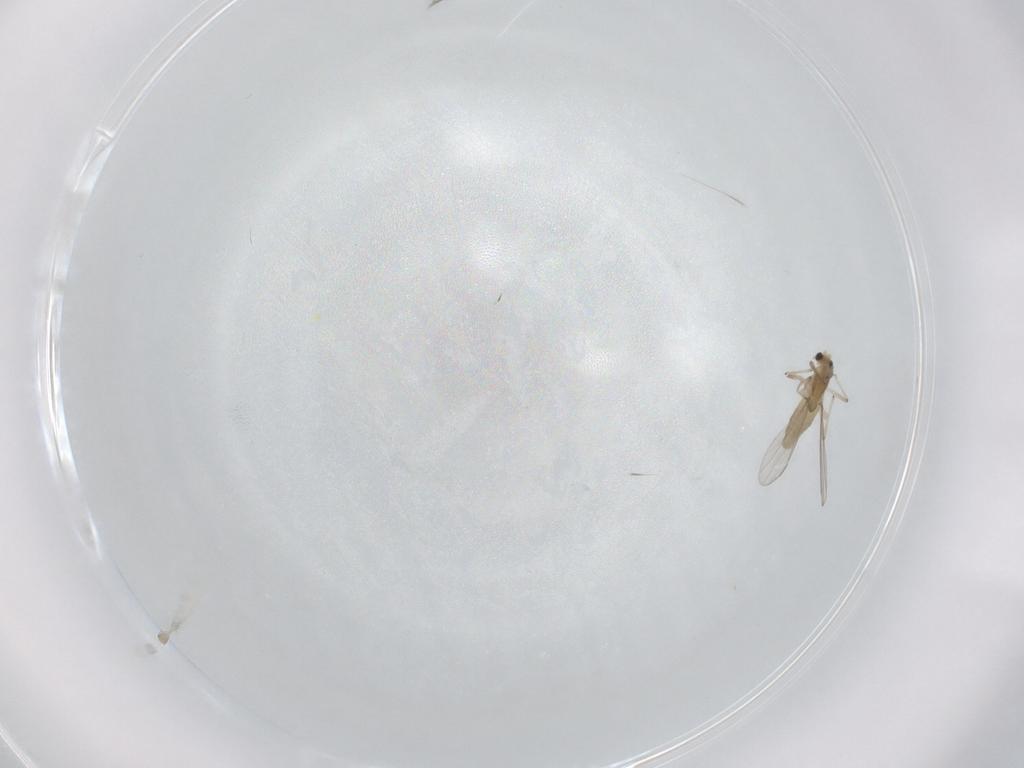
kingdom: Animalia
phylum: Arthropoda
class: Insecta
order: Diptera
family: Chironomidae
